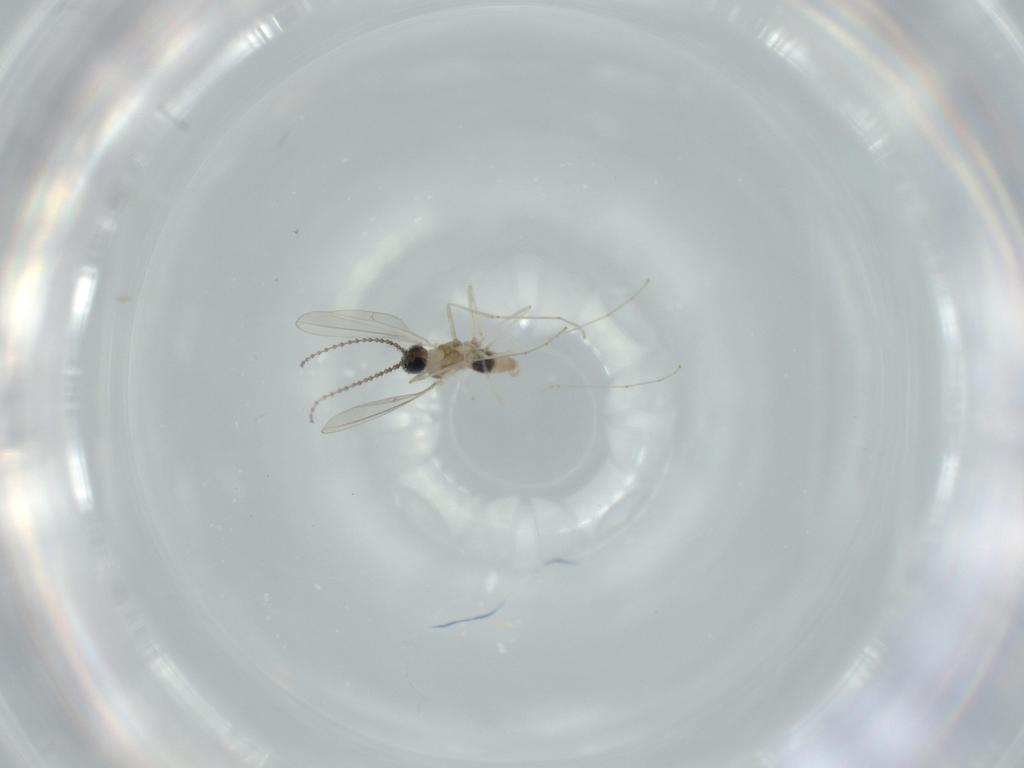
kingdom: Animalia
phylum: Arthropoda
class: Insecta
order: Diptera
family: Cecidomyiidae
